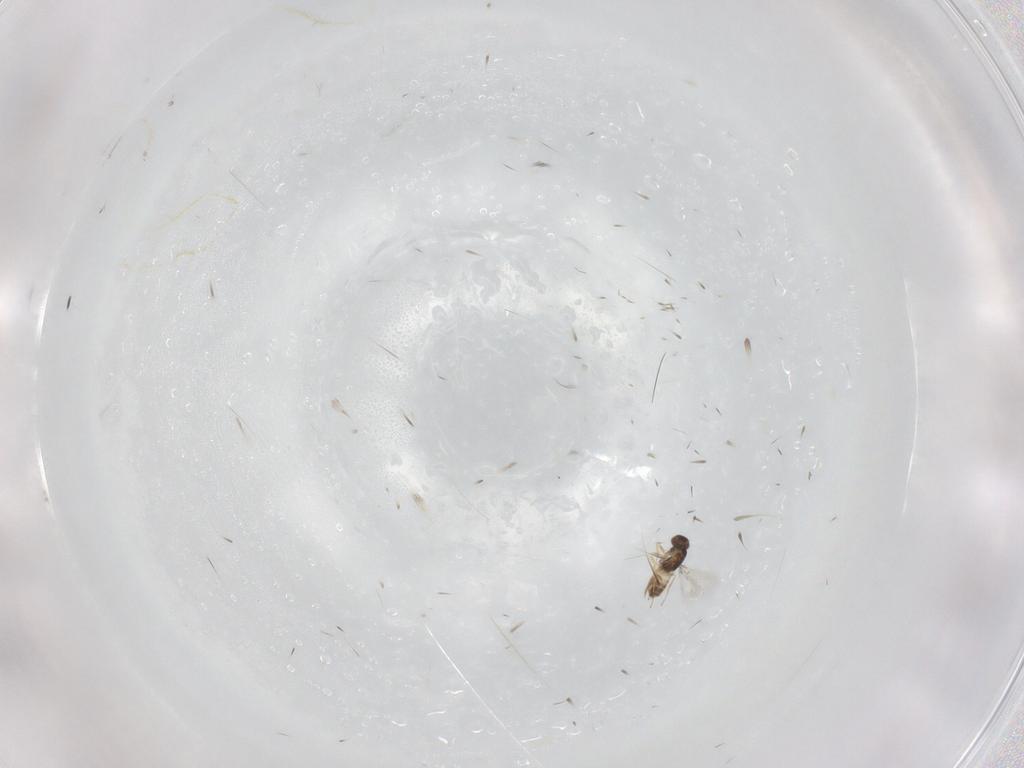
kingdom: Animalia
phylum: Arthropoda
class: Insecta
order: Hymenoptera
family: Mymaridae
